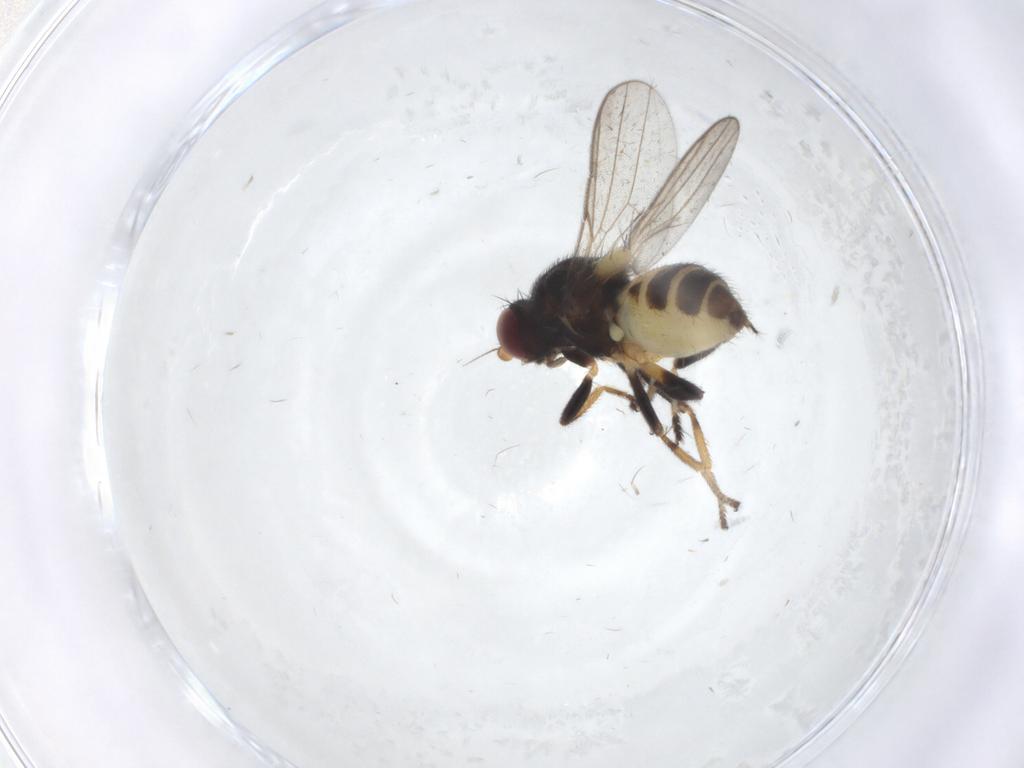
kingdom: Animalia
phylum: Arthropoda
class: Insecta
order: Diptera
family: Chloropidae
